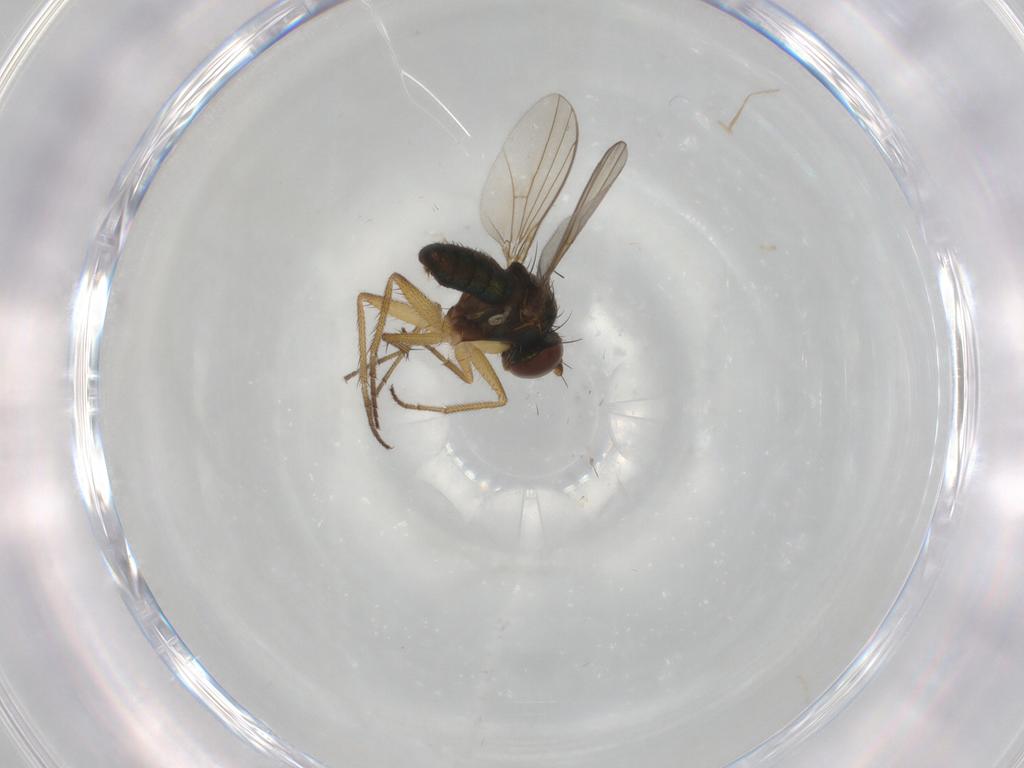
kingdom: Animalia
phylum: Arthropoda
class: Insecta
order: Diptera
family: Dolichopodidae
